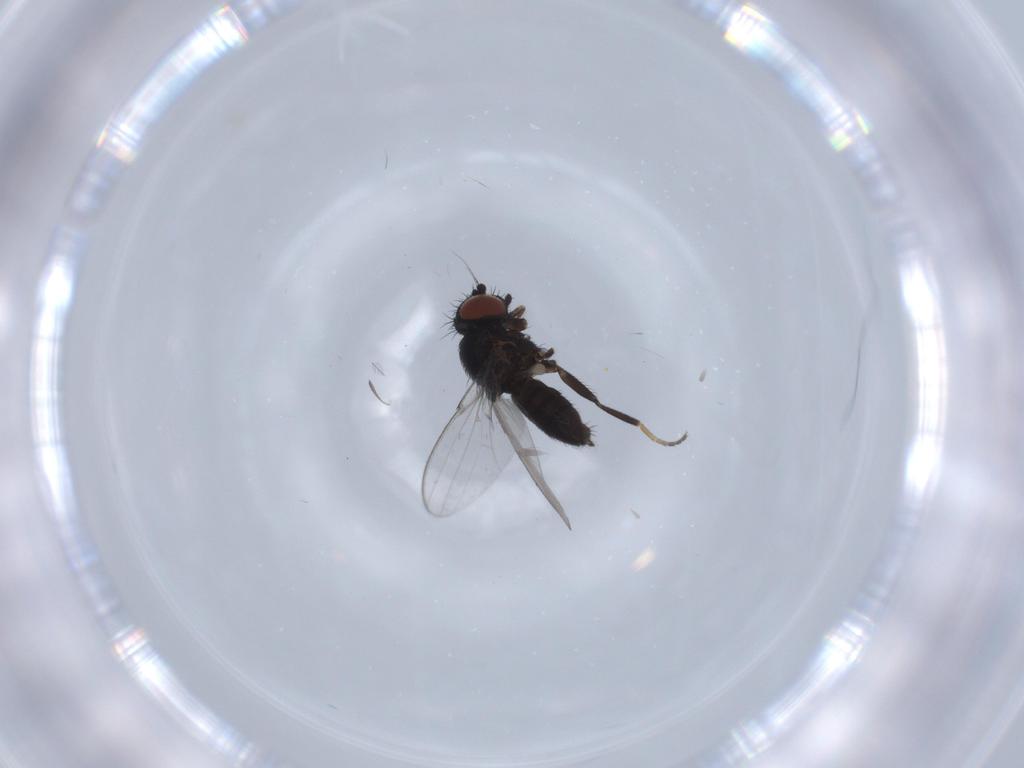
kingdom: Animalia
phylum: Arthropoda
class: Insecta
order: Diptera
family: Milichiidae
